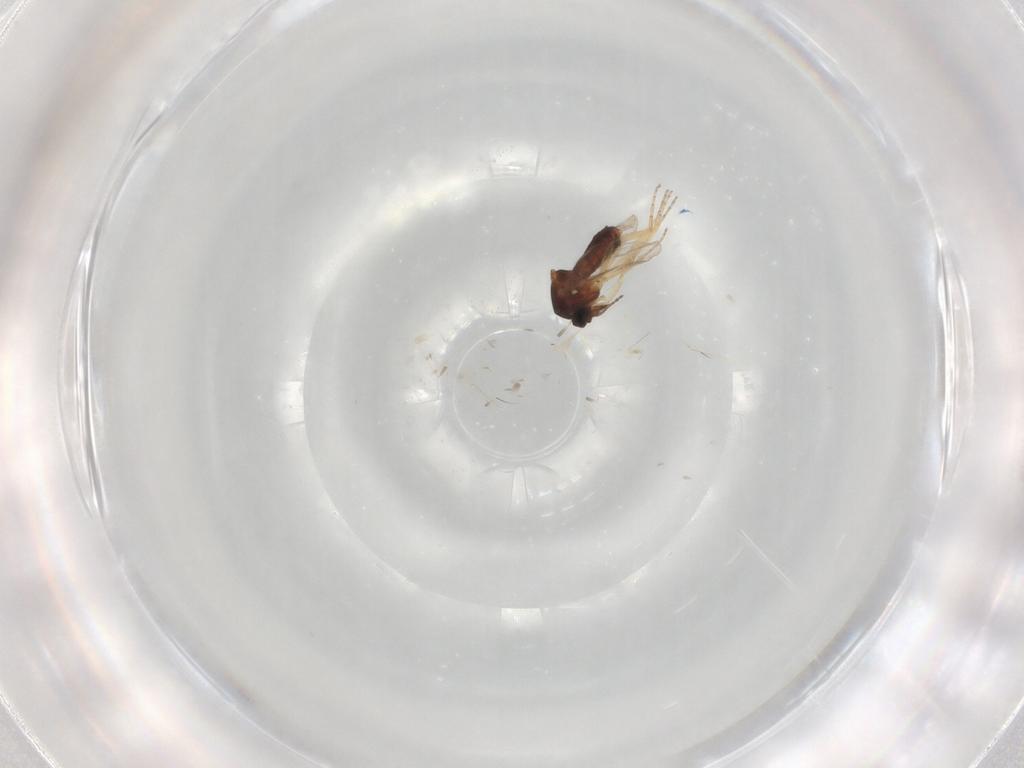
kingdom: Animalia
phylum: Arthropoda
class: Insecta
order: Diptera
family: Ceratopogonidae
